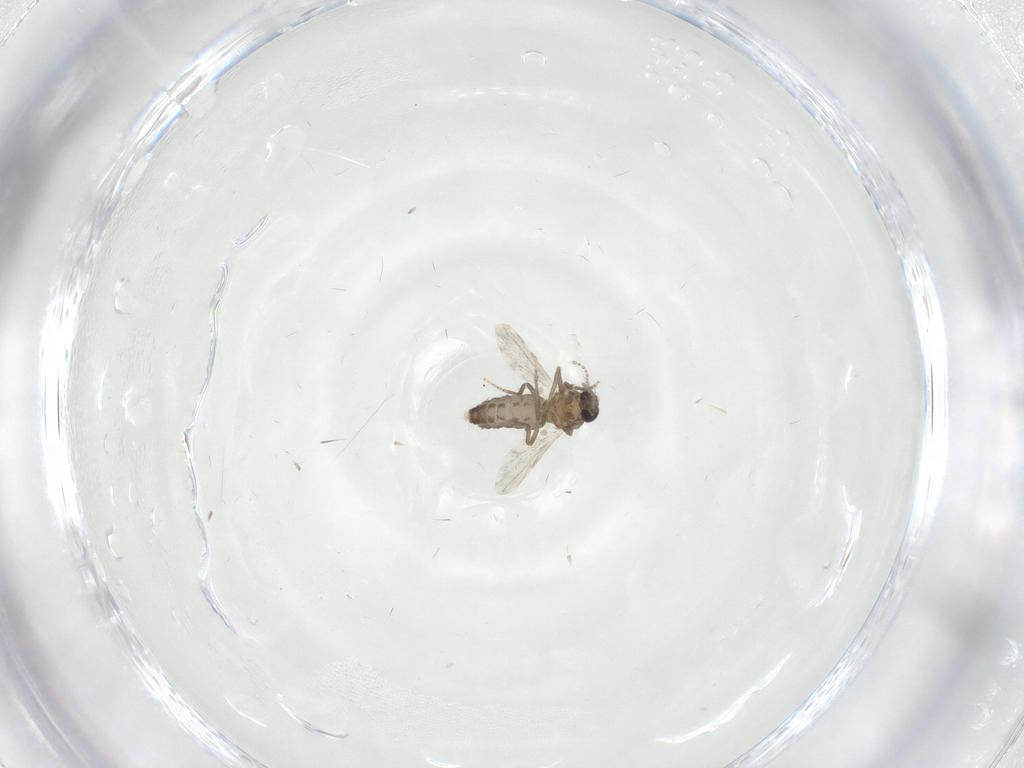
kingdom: Animalia
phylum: Arthropoda
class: Insecta
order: Diptera
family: Ceratopogonidae
